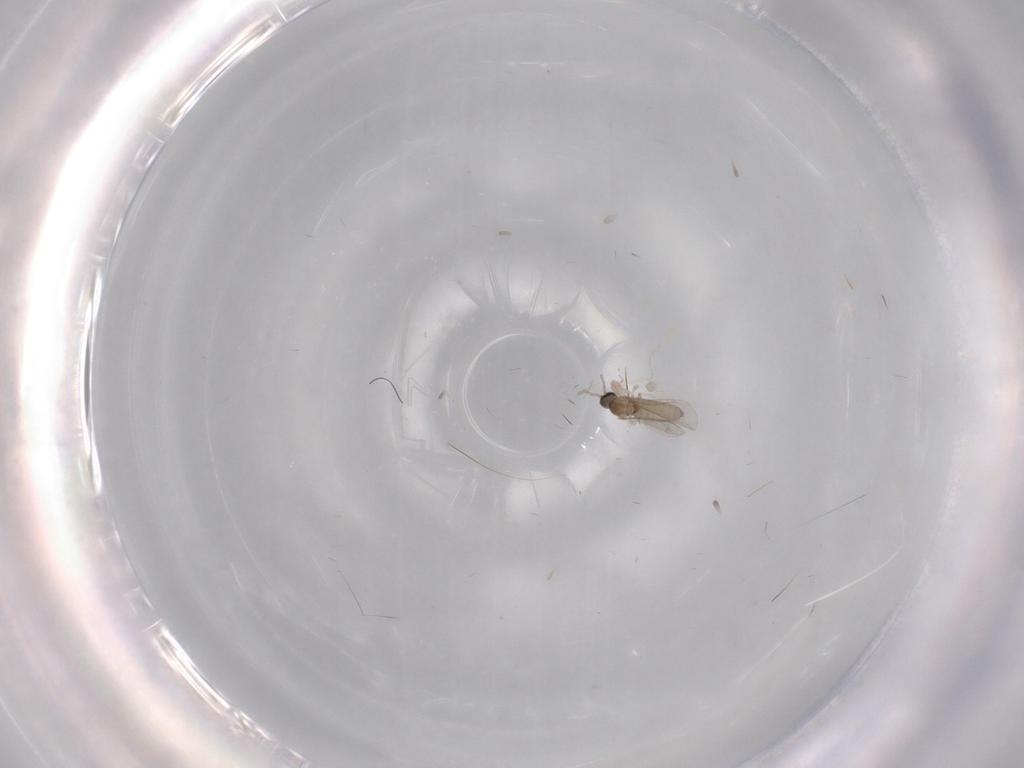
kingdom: Animalia
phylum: Arthropoda
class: Insecta
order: Diptera
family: Cecidomyiidae
